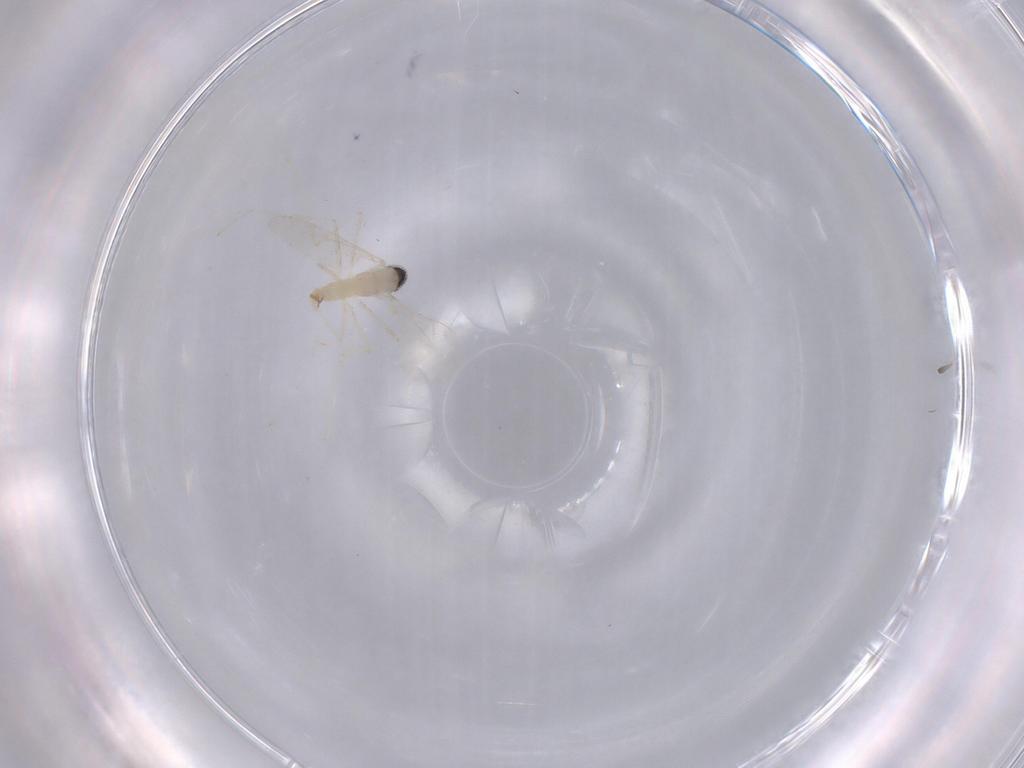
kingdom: Animalia
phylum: Arthropoda
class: Insecta
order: Diptera
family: Cecidomyiidae
